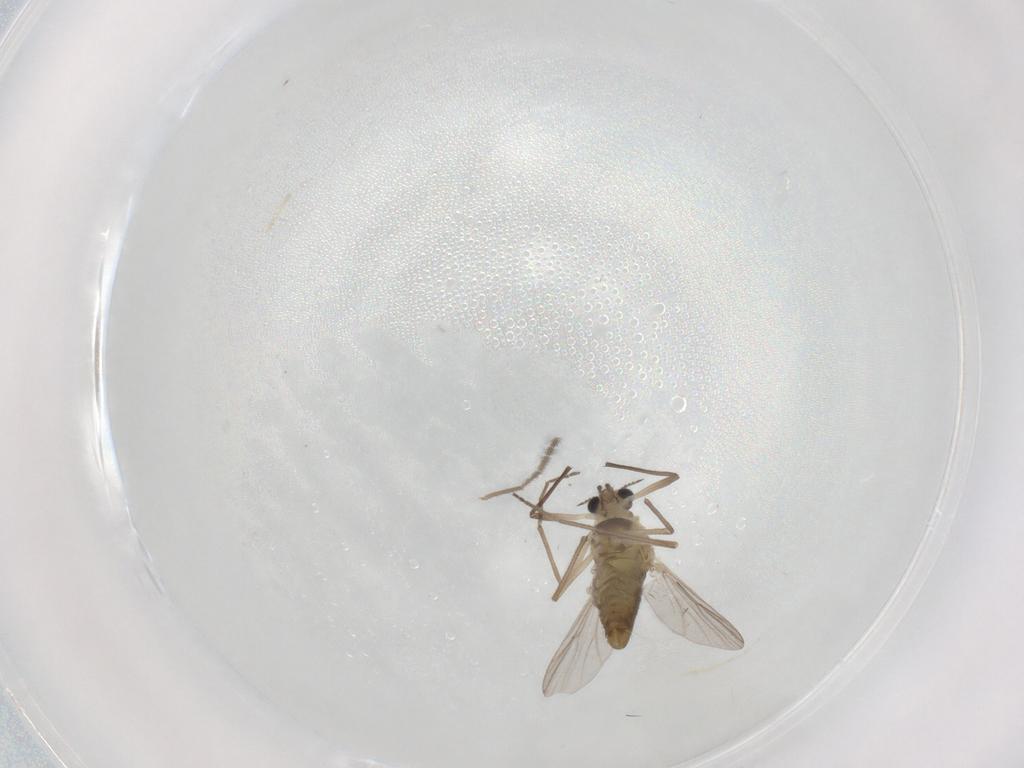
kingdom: Animalia
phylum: Arthropoda
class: Insecta
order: Diptera
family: Chironomidae
